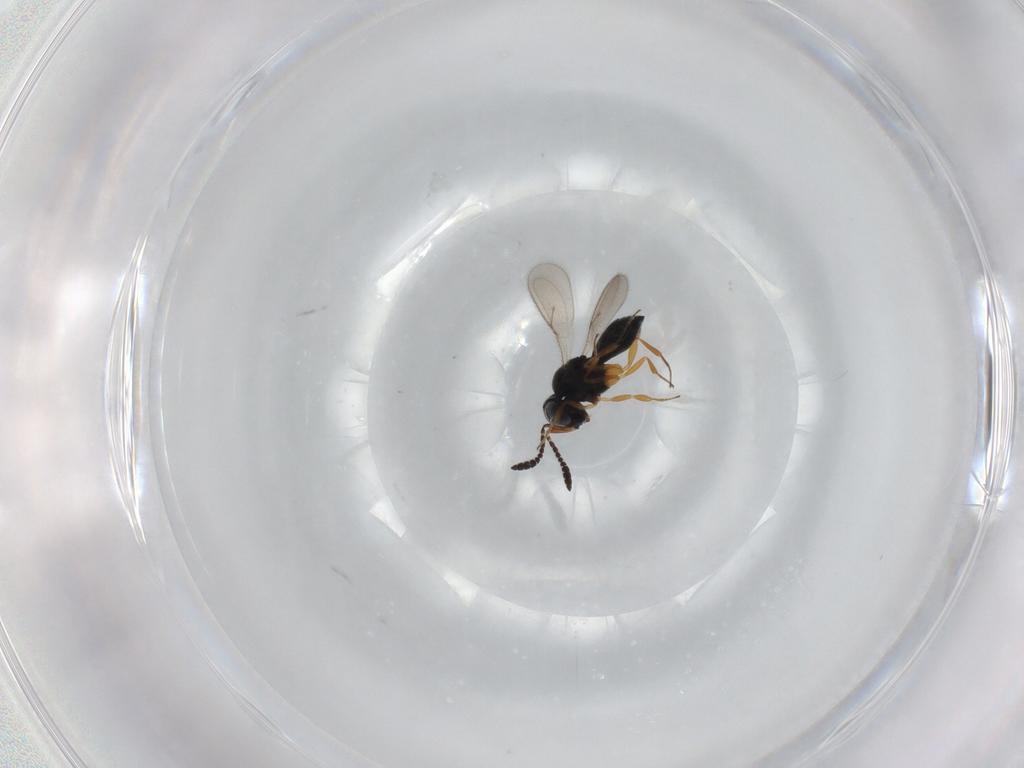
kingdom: Animalia
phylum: Arthropoda
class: Insecta
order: Hymenoptera
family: Scelionidae
